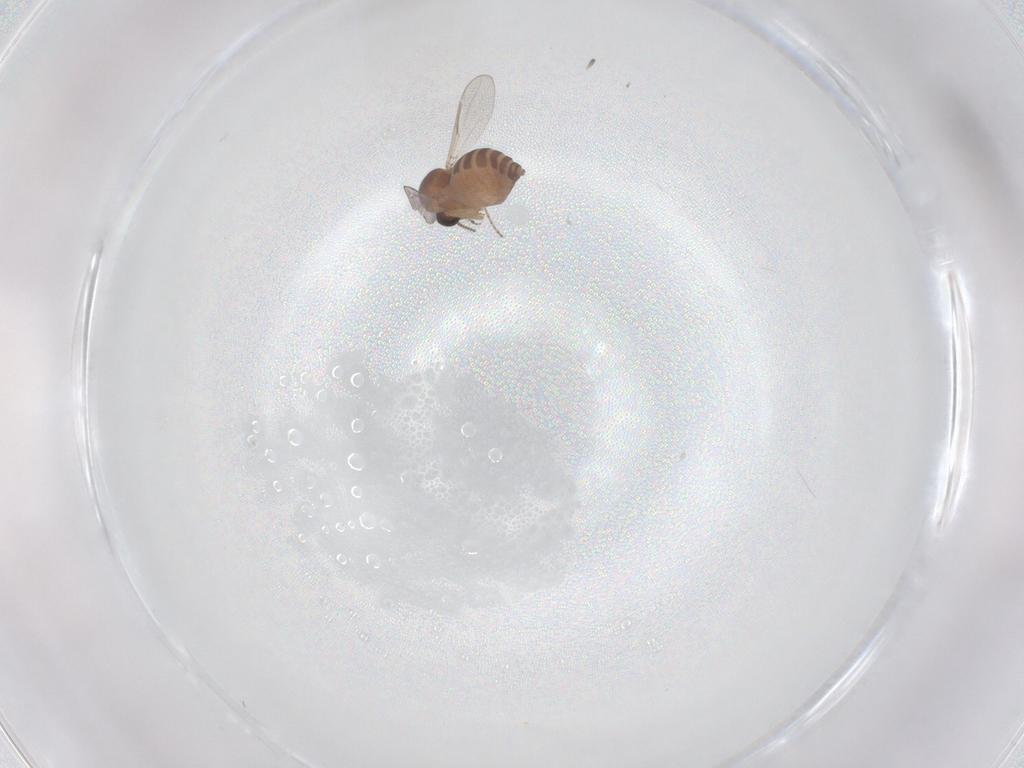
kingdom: Animalia
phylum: Arthropoda
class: Insecta
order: Diptera
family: Ceratopogonidae
